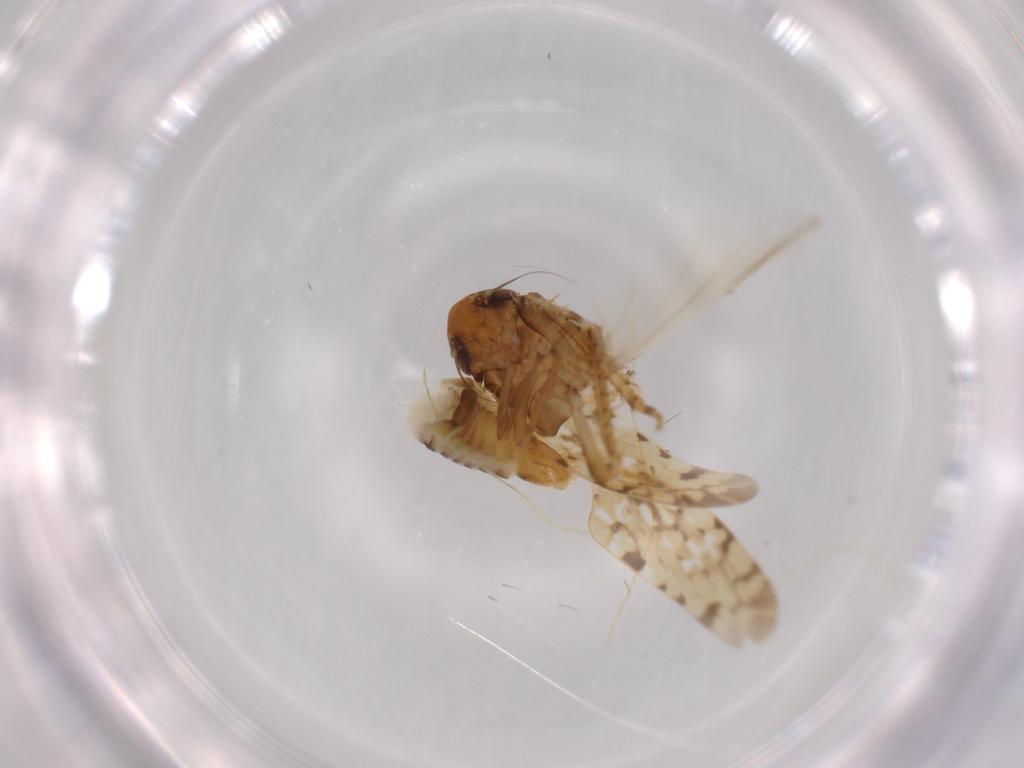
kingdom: Animalia
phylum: Arthropoda
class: Insecta
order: Hemiptera
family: Cicadellidae
